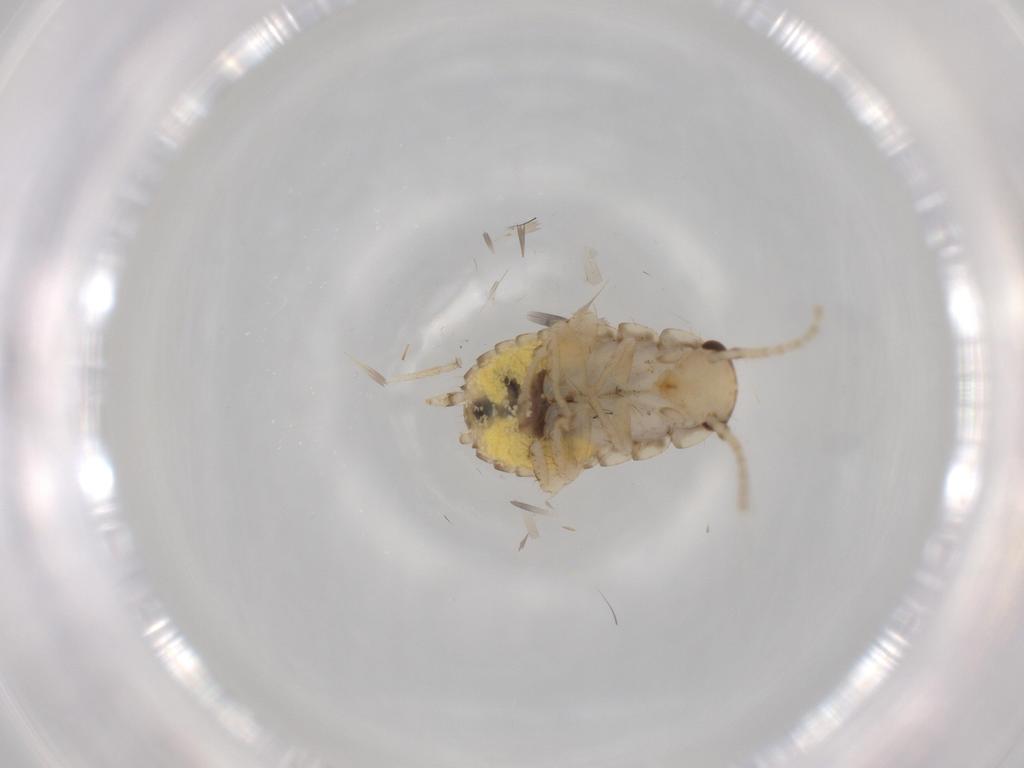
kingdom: Animalia
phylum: Arthropoda
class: Insecta
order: Blattodea
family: Ectobiidae
